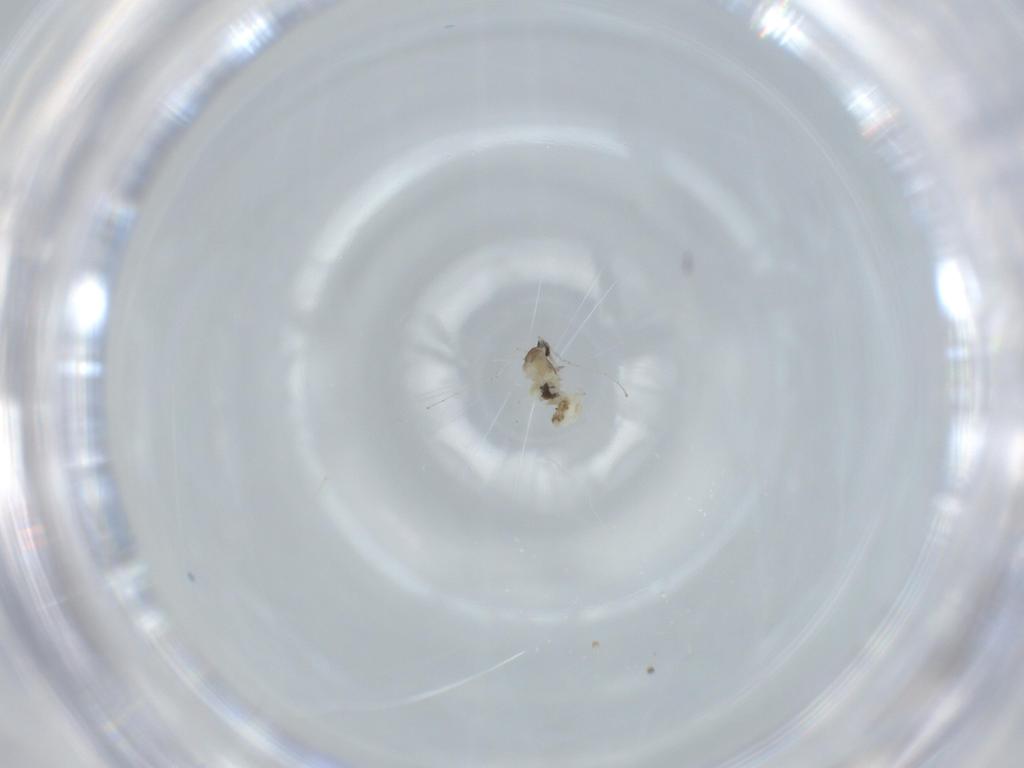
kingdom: Animalia
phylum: Arthropoda
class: Insecta
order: Diptera
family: Cecidomyiidae
